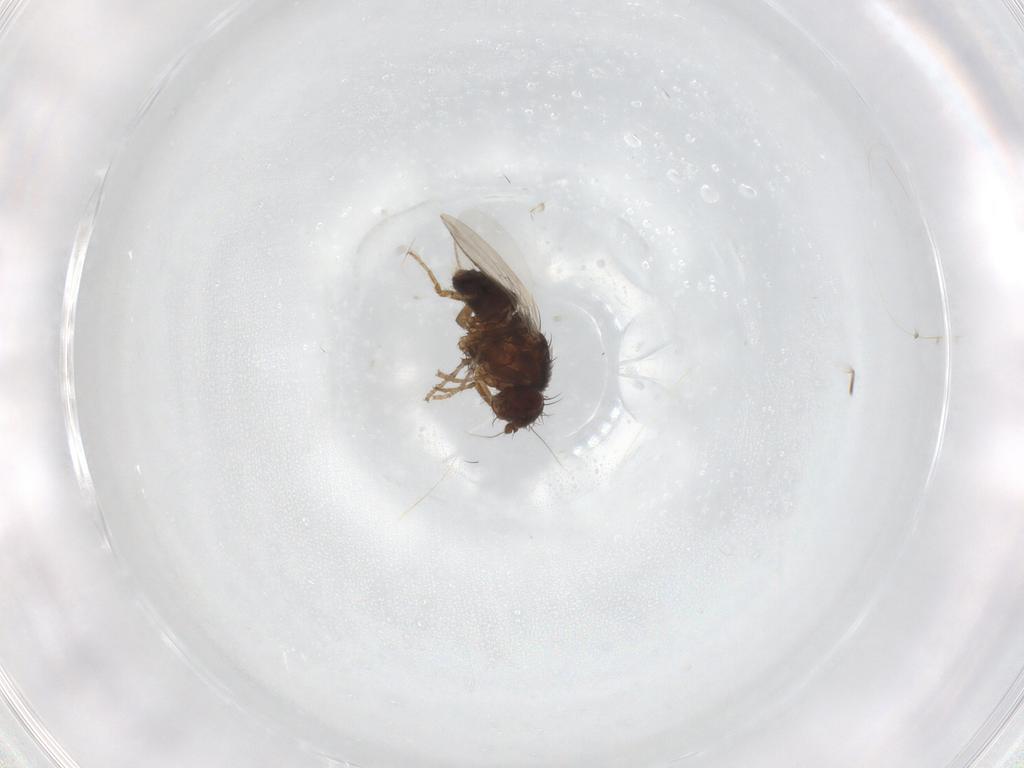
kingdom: Animalia
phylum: Arthropoda
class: Insecta
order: Diptera
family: Sphaeroceridae
